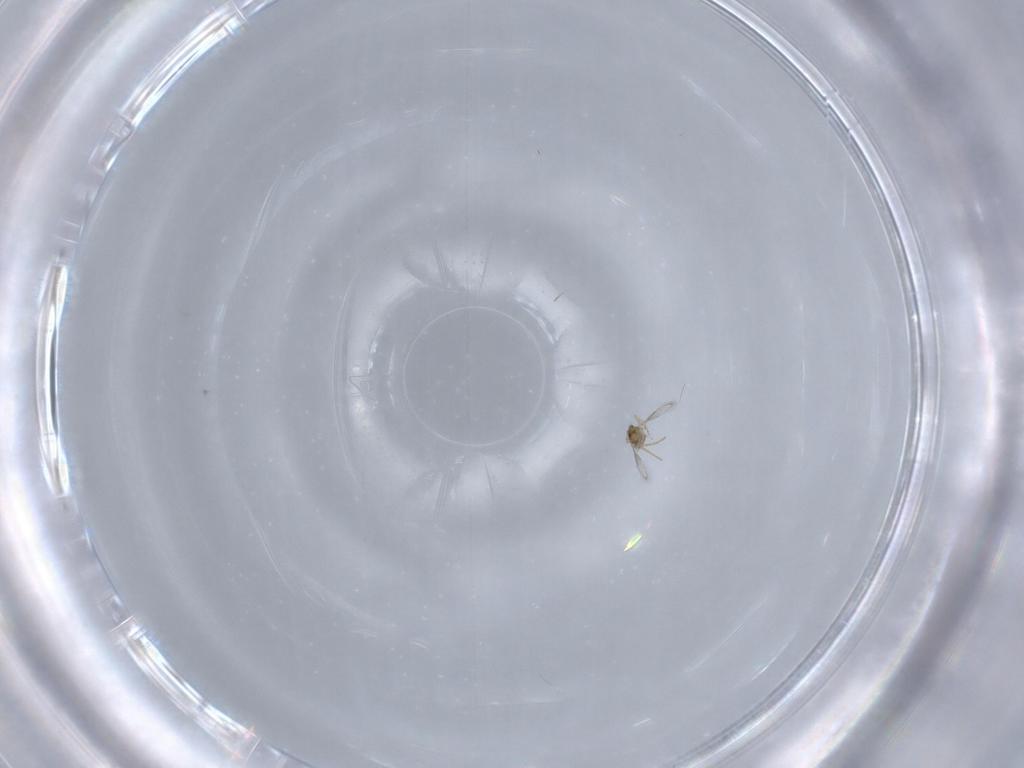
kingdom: Animalia
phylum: Arthropoda
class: Insecta
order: Hymenoptera
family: Aphelinidae
